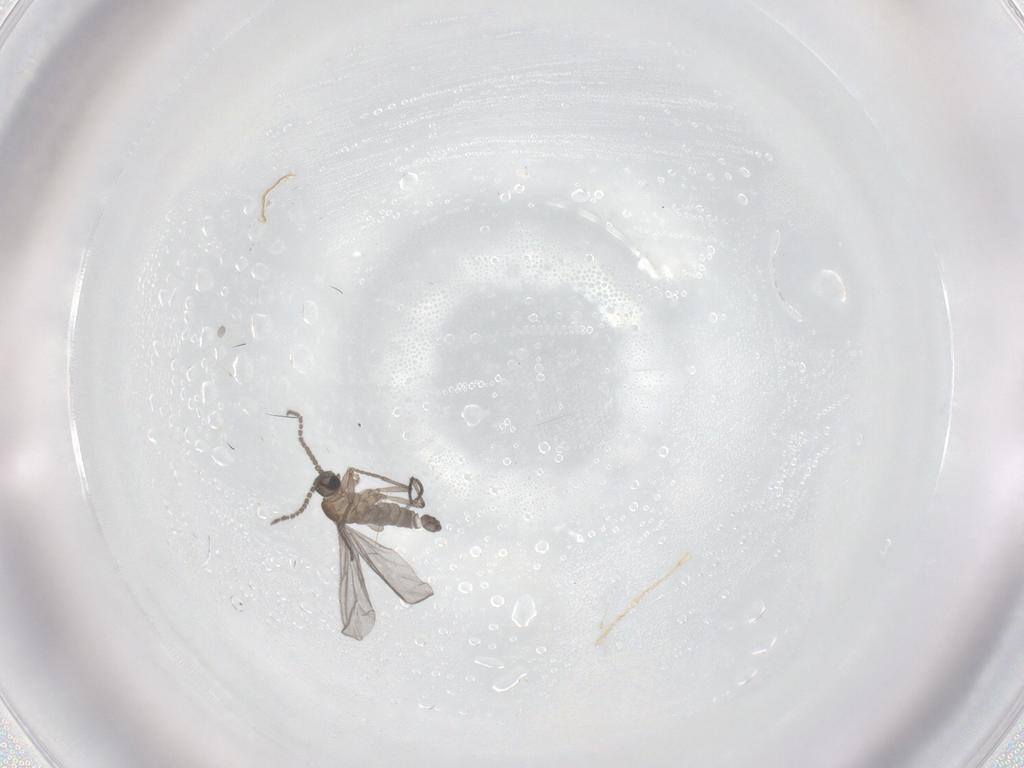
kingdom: Animalia
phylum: Arthropoda
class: Insecta
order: Diptera
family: Sciaridae
